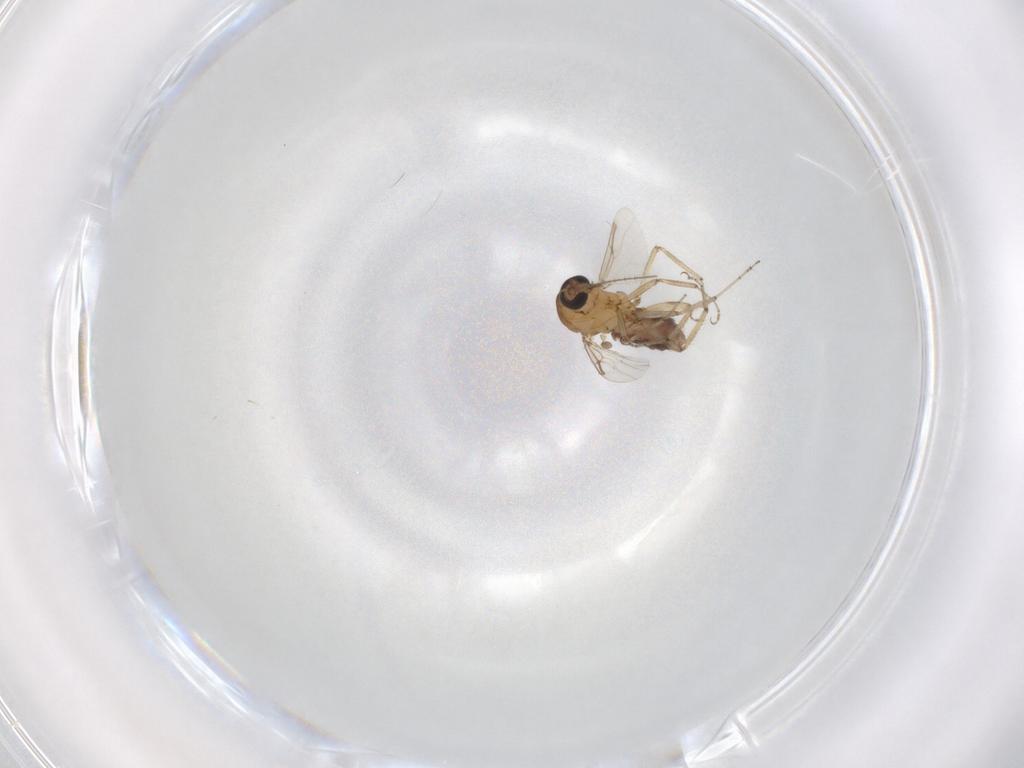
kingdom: Animalia
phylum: Arthropoda
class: Insecta
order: Diptera
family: Ceratopogonidae
